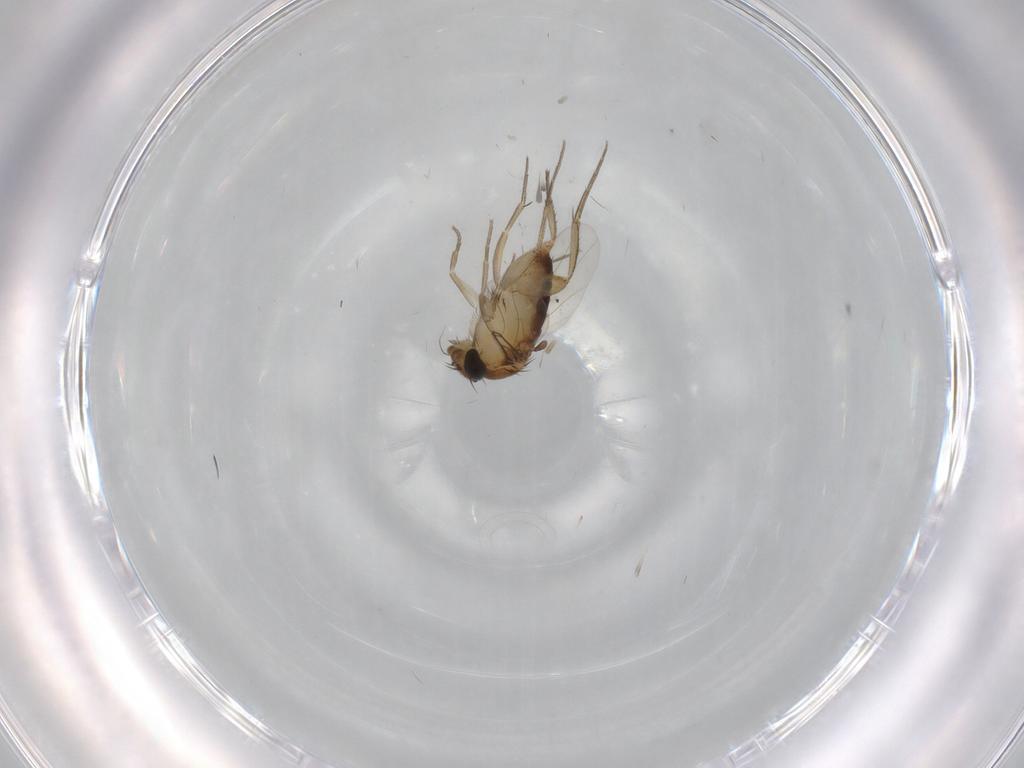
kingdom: Animalia
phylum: Arthropoda
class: Insecta
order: Diptera
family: Phoridae
